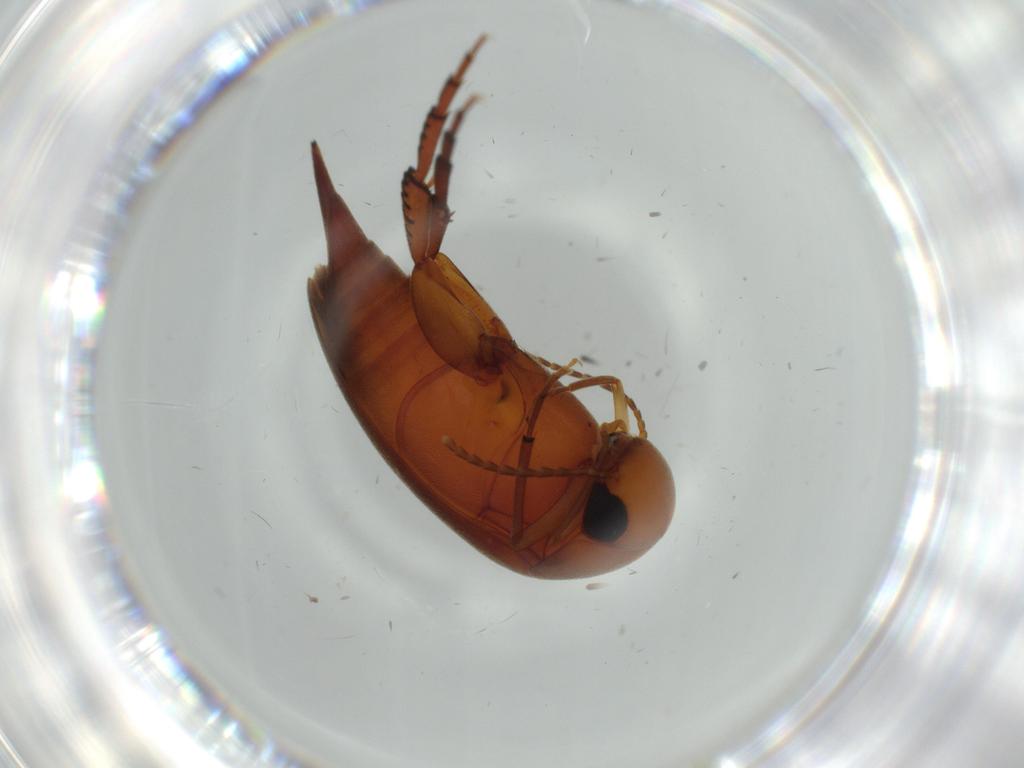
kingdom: Animalia
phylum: Arthropoda
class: Insecta
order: Coleoptera
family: Mordellidae
